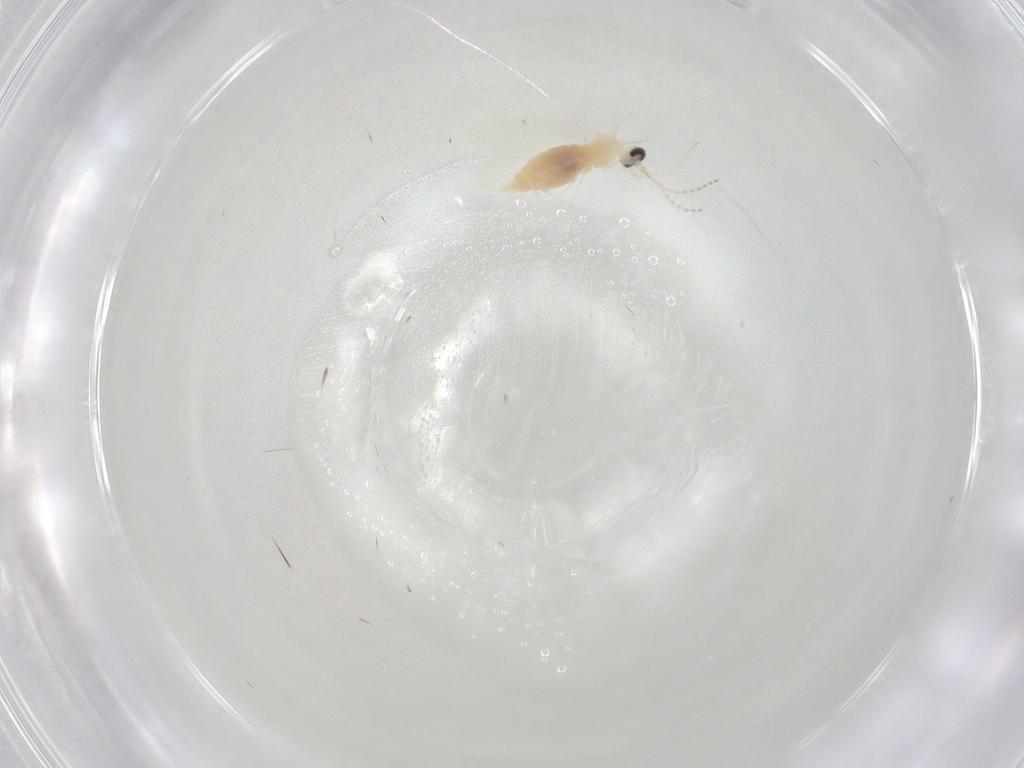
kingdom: Animalia
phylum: Arthropoda
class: Insecta
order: Diptera
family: Cecidomyiidae
